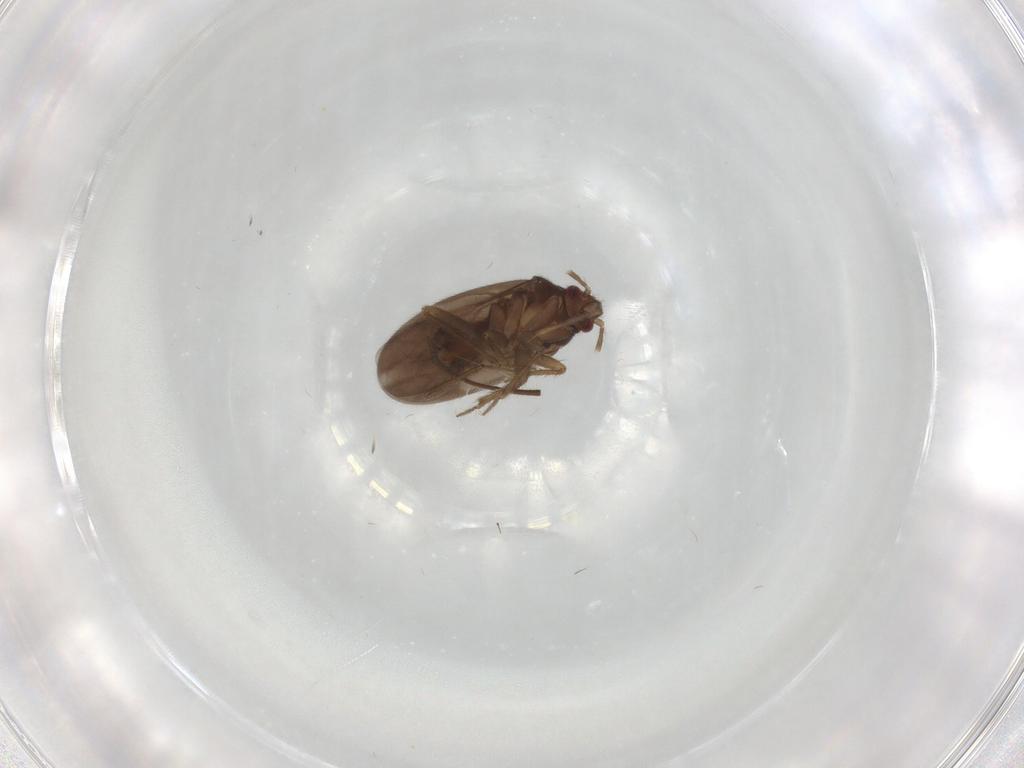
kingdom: Animalia
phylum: Arthropoda
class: Insecta
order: Hemiptera
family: Ceratocombidae
